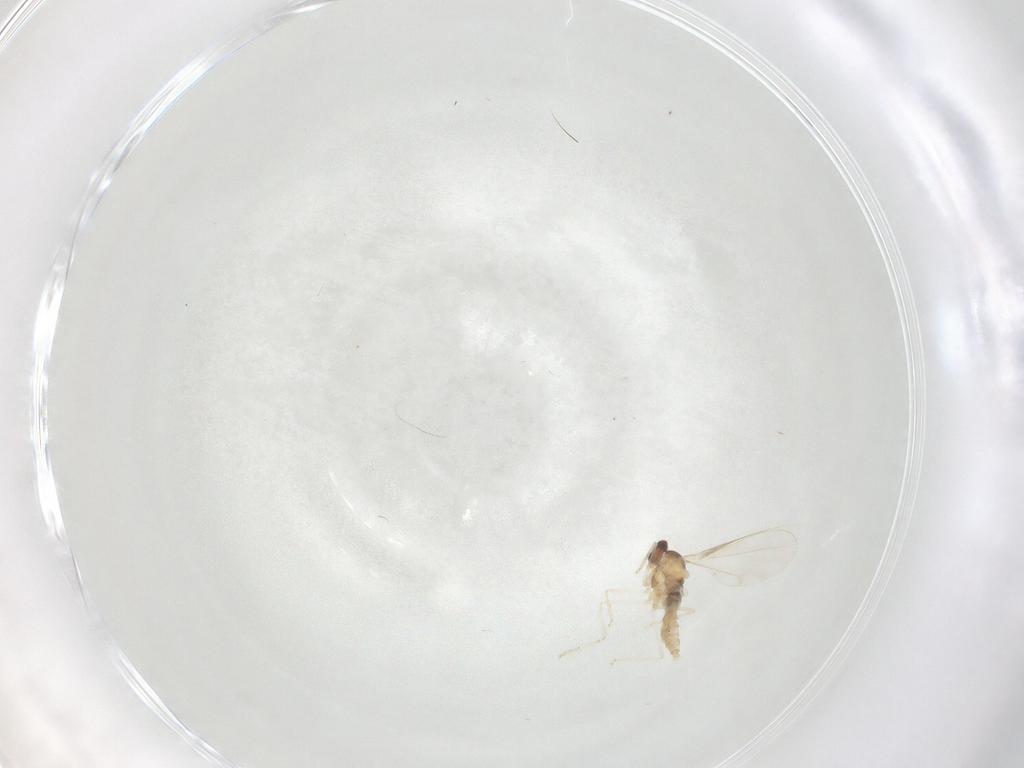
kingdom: Animalia
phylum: Arthropoda
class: Insecta
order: Diptera
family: Cecidomyiidae
